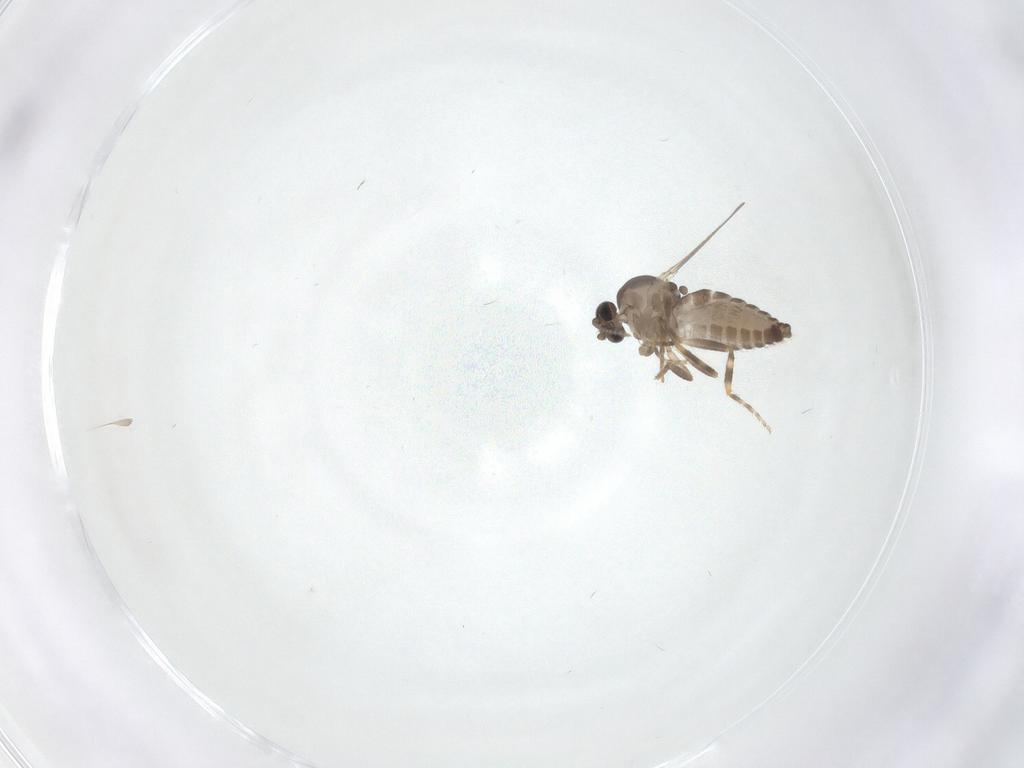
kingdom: Animalia
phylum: Arthropoda
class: Insecta
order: Diptera
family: Ceratopogonidae
